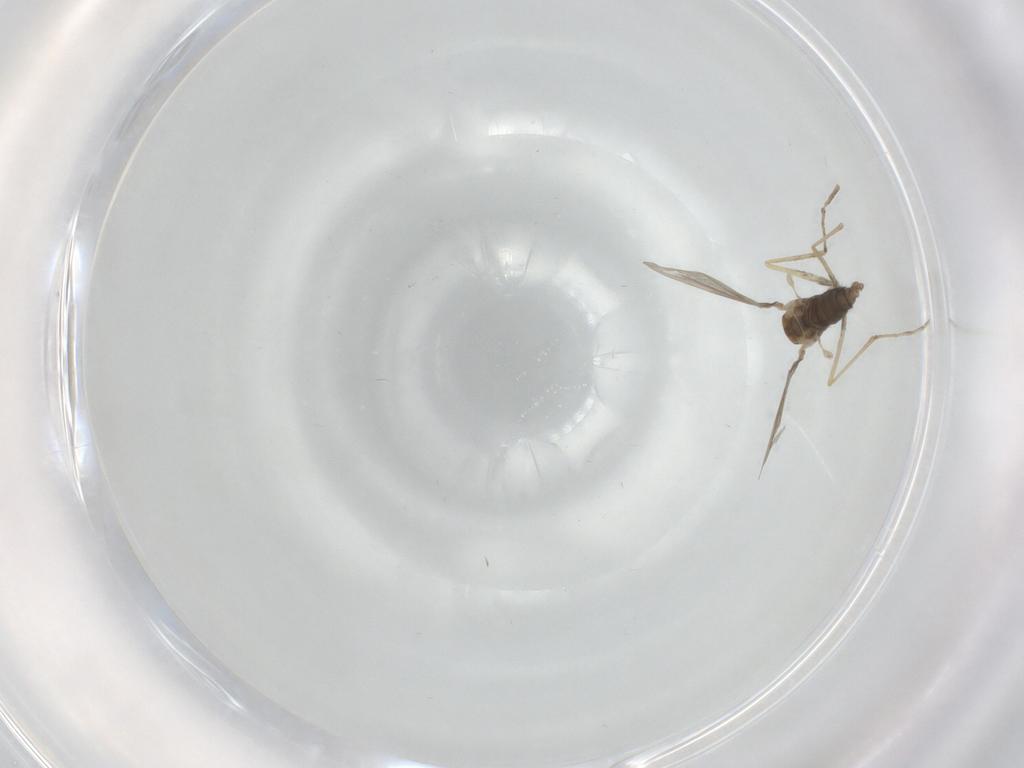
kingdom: Animalia
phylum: Arthropoda
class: Insecta
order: Diptera
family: Cecidomyiidae
